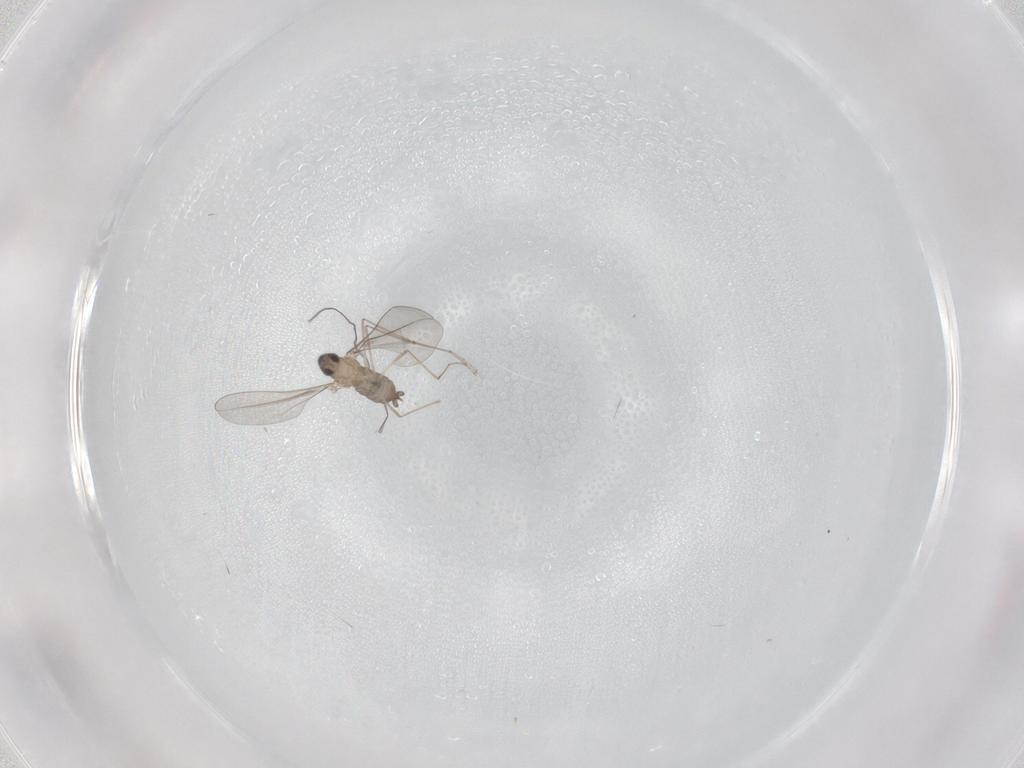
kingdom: Animalia
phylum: Arthropoda
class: Insecta
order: Diptera
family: Cecidomyiidae
